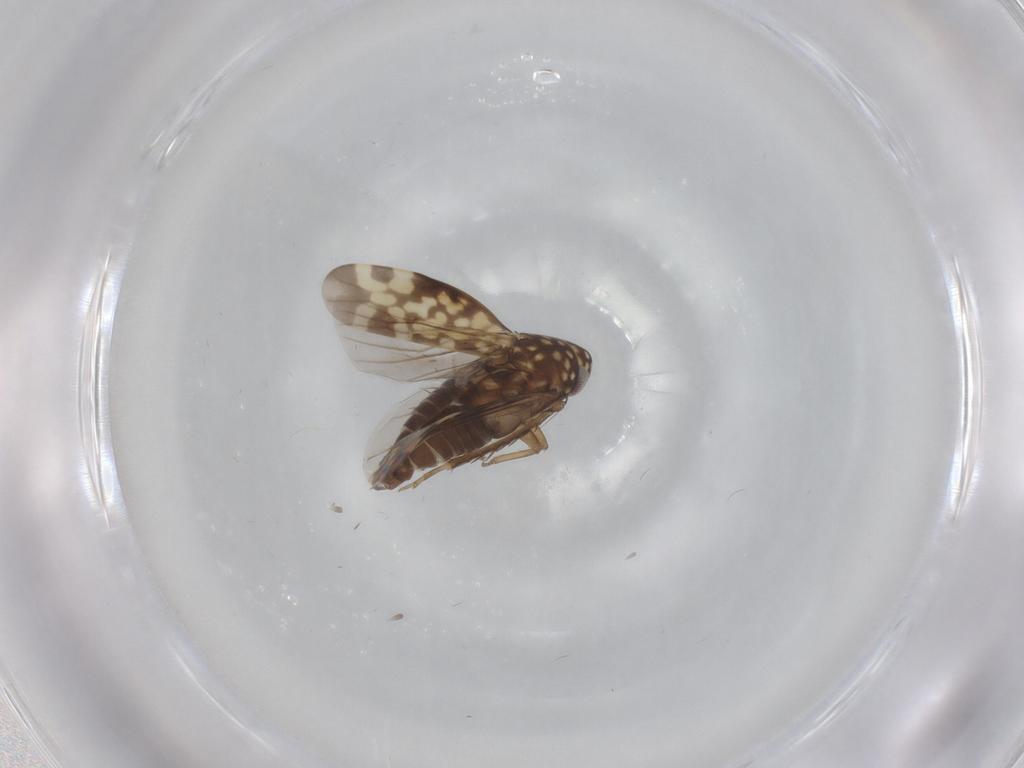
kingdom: Animalia
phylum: Arthropoda
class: Insecta
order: Hemiptera
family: Cicadellidae
